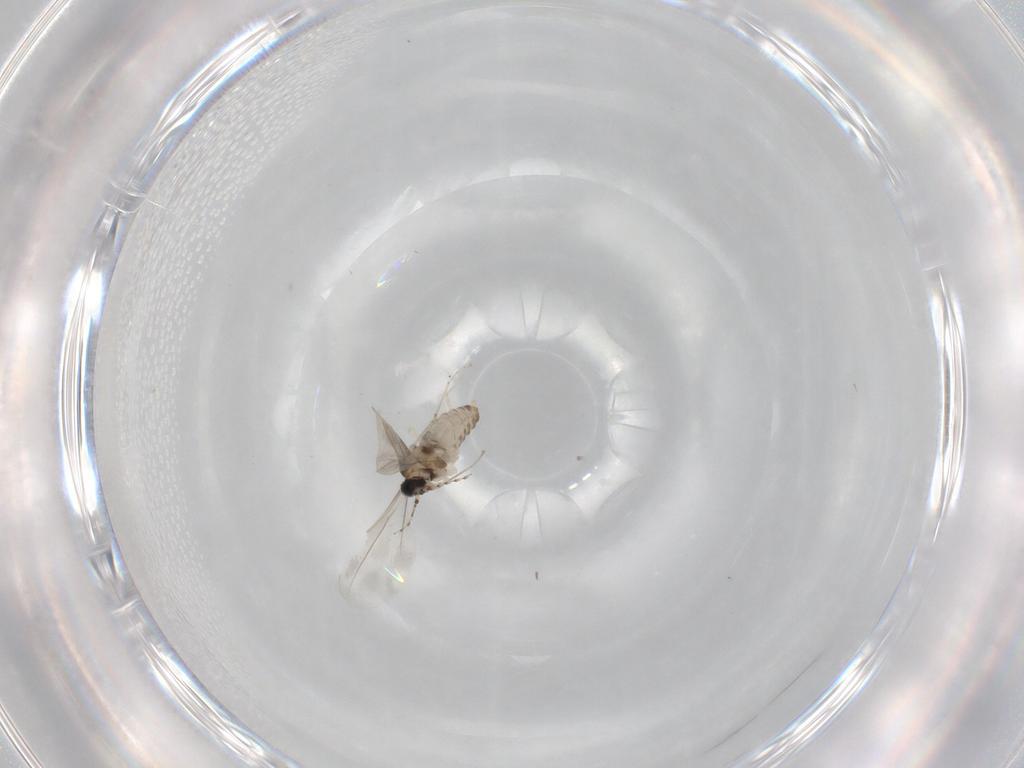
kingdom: Animalia
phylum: Arthropoda
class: Insecta
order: Diptera
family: Cecidomyiidae
